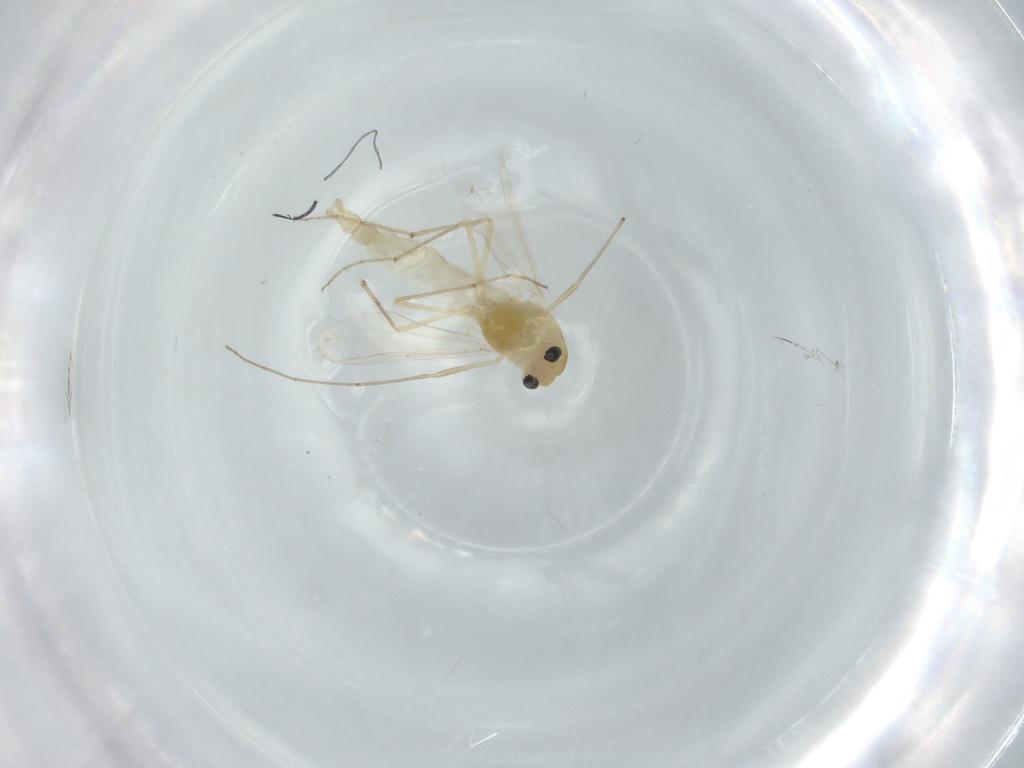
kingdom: Animalia
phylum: Arthropoda
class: Insecta
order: Diptera
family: Chironomidae
